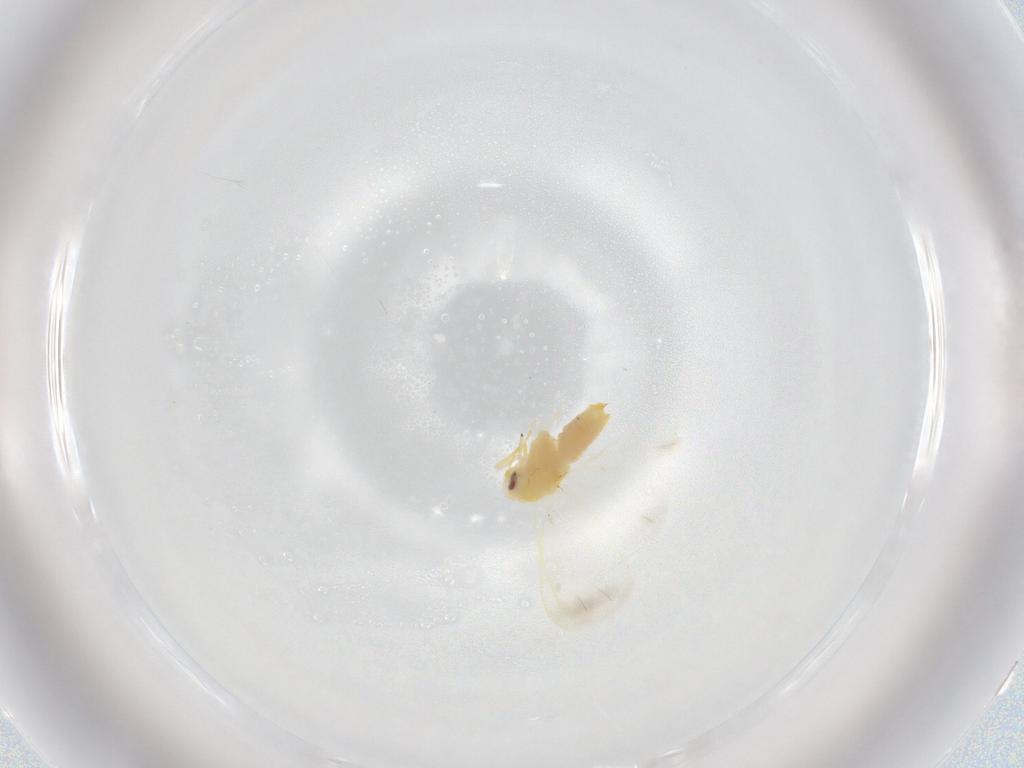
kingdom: Animalia
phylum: Arthropoda
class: Insecta
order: Hemiptera
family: Aleyrodidae
